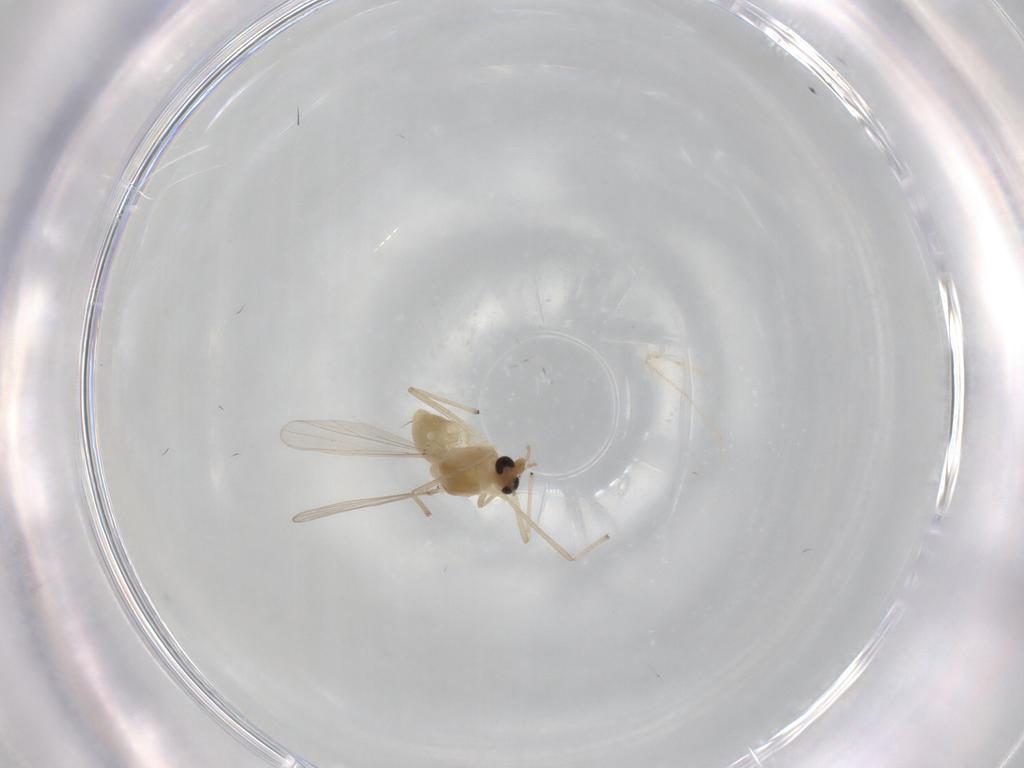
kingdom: Animalia
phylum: Arthropoda
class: Insecta
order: Diptera
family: Chironomidae
